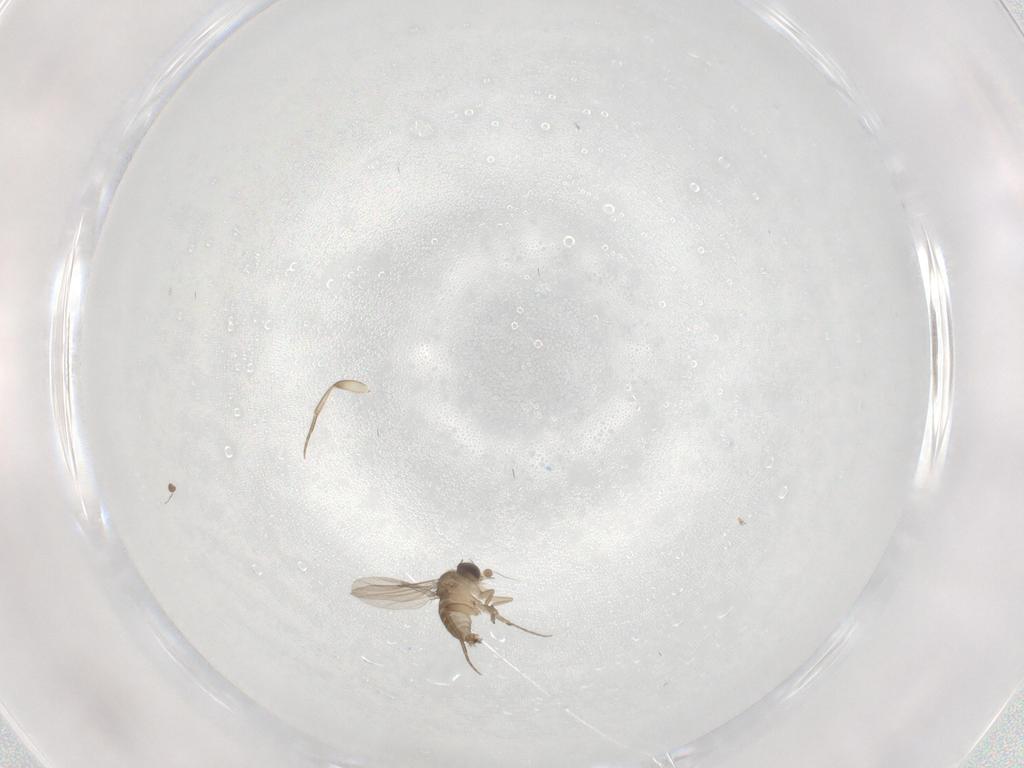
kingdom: Animalia
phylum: Arthropoda
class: Insecta
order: Diptera
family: Phoridae
